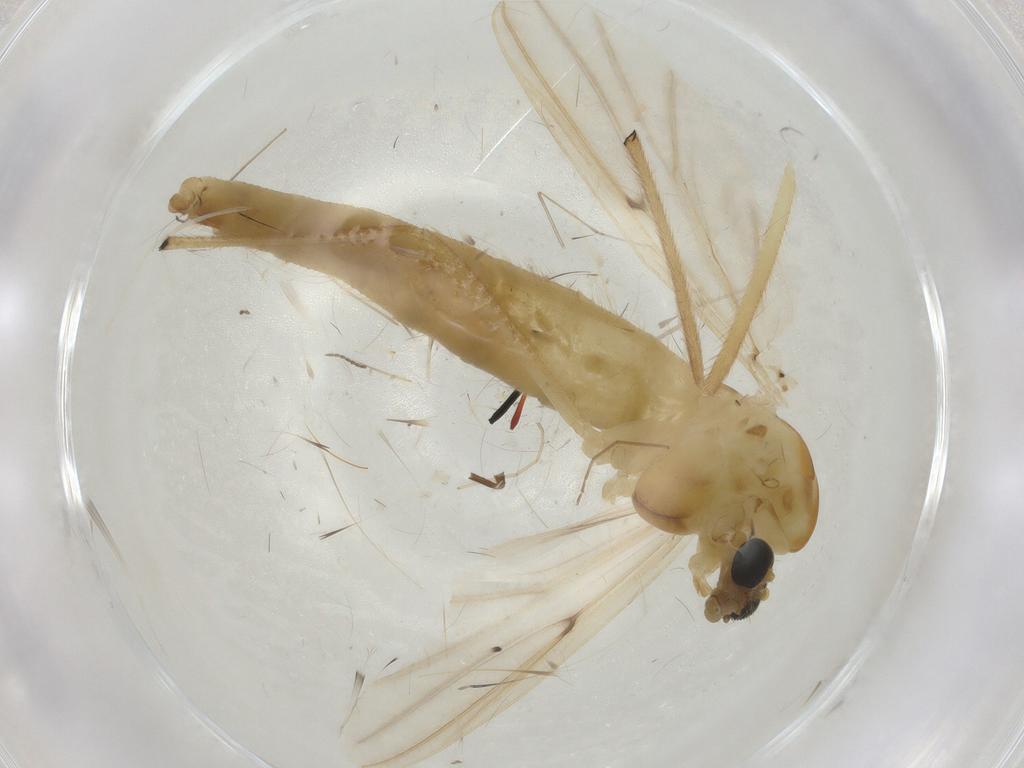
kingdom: Animalia
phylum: Arthropoda
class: Insecta
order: Diptera
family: Chironomidae
